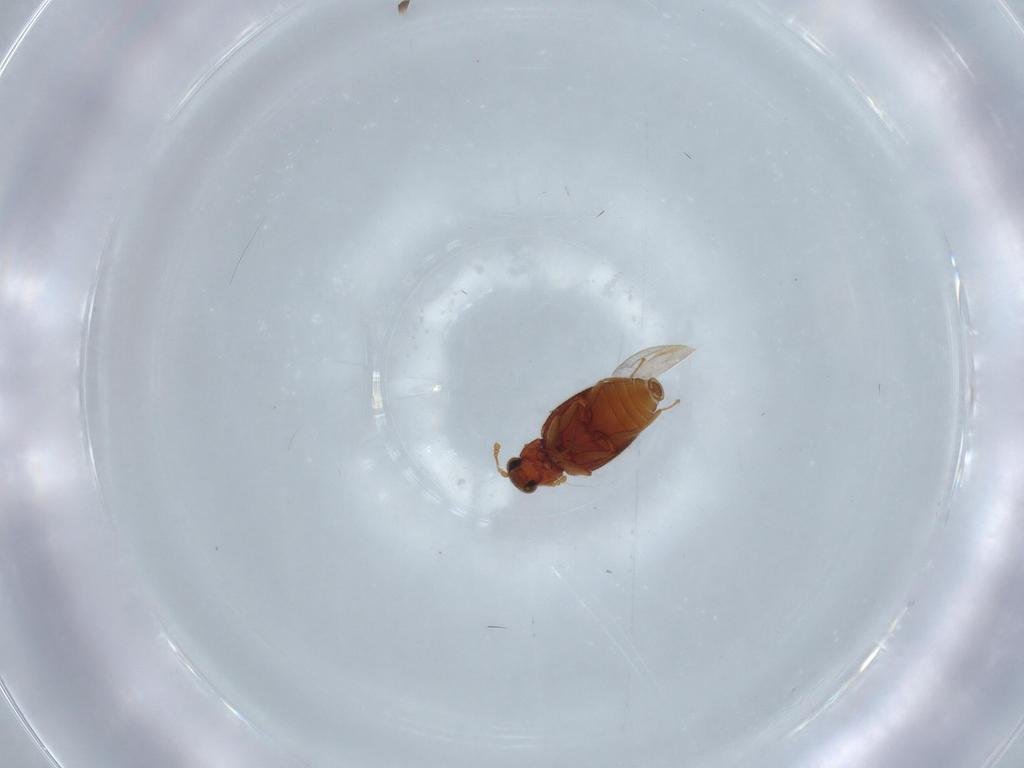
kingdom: Animalia
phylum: Arthropoda
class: Insecta
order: Coleoptera
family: Latridiidae
